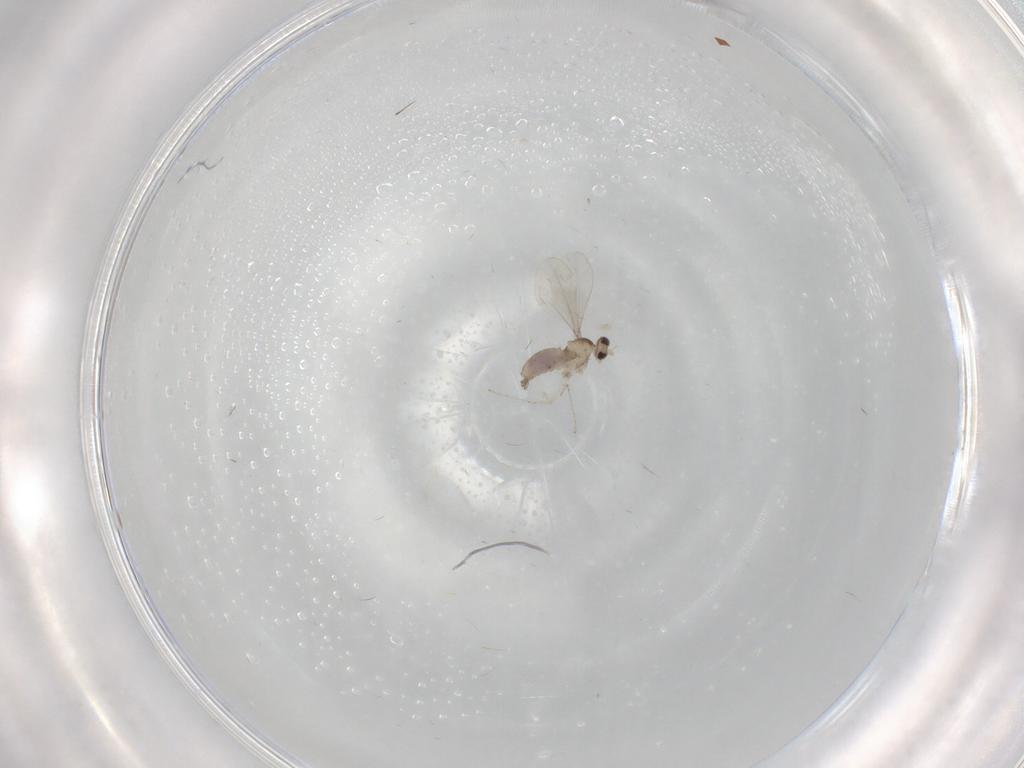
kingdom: Animalia
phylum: Arthropoda
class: Insecta
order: Diptera
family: Cecidomyiidae
